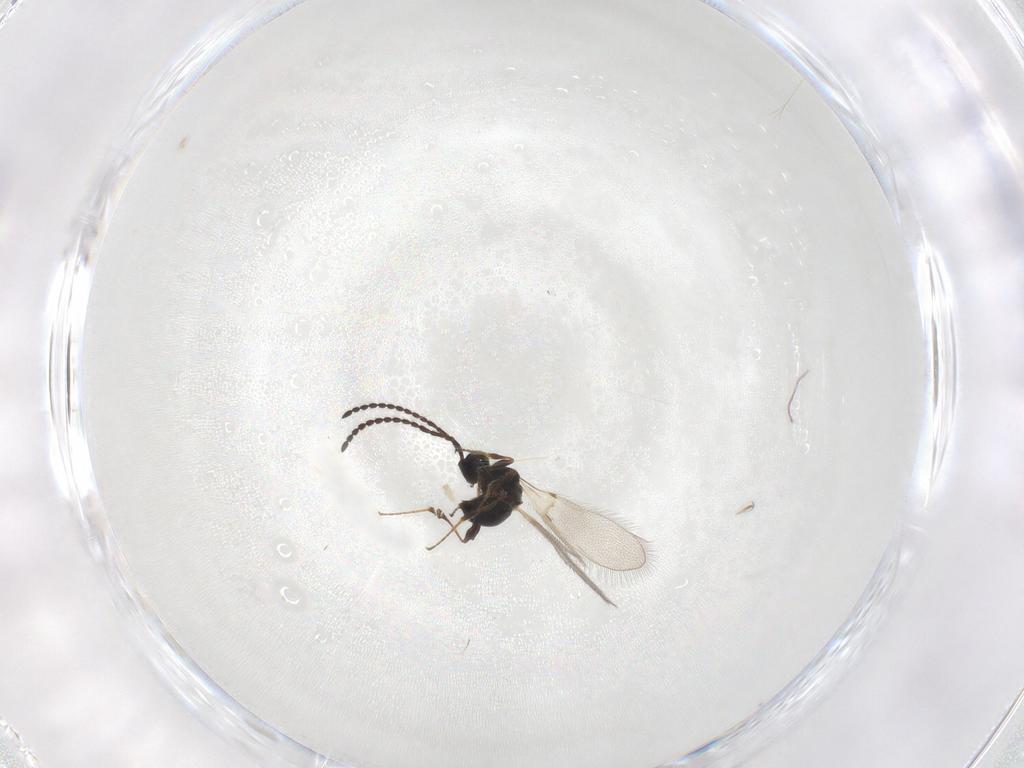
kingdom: Animalia
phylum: Arthropoda
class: Insecta
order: Hymenoptera
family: Diapriidae
